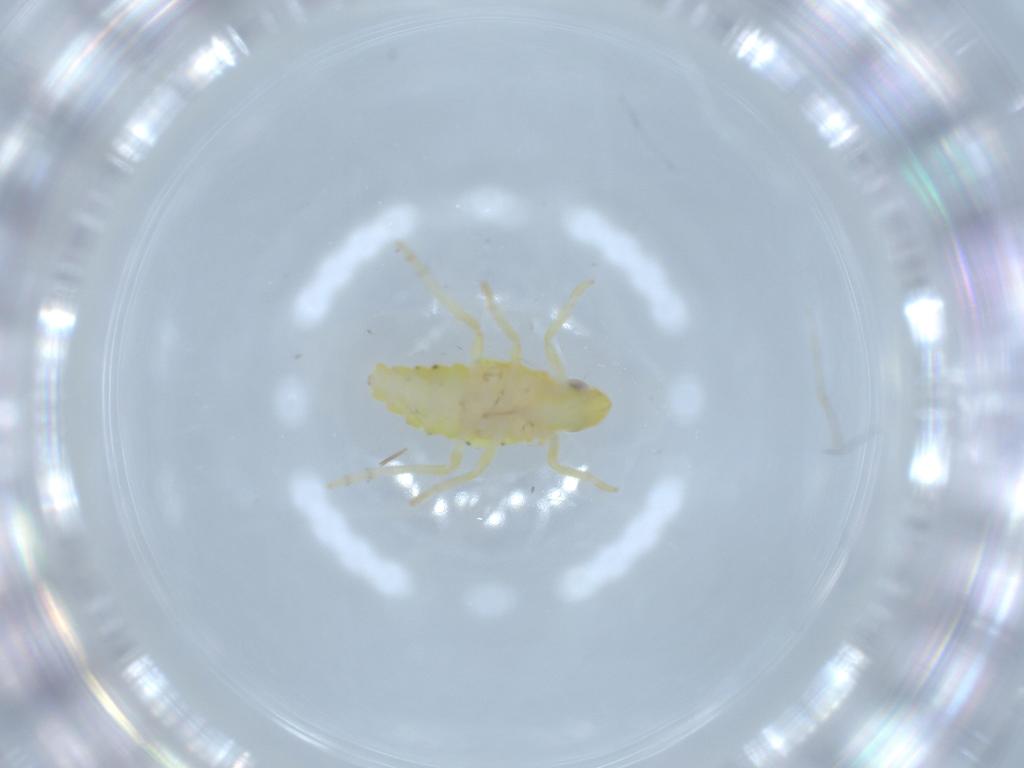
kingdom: Animalia
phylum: Arthropoda
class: Insecta
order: Hemiptera
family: Tropiduchidae
